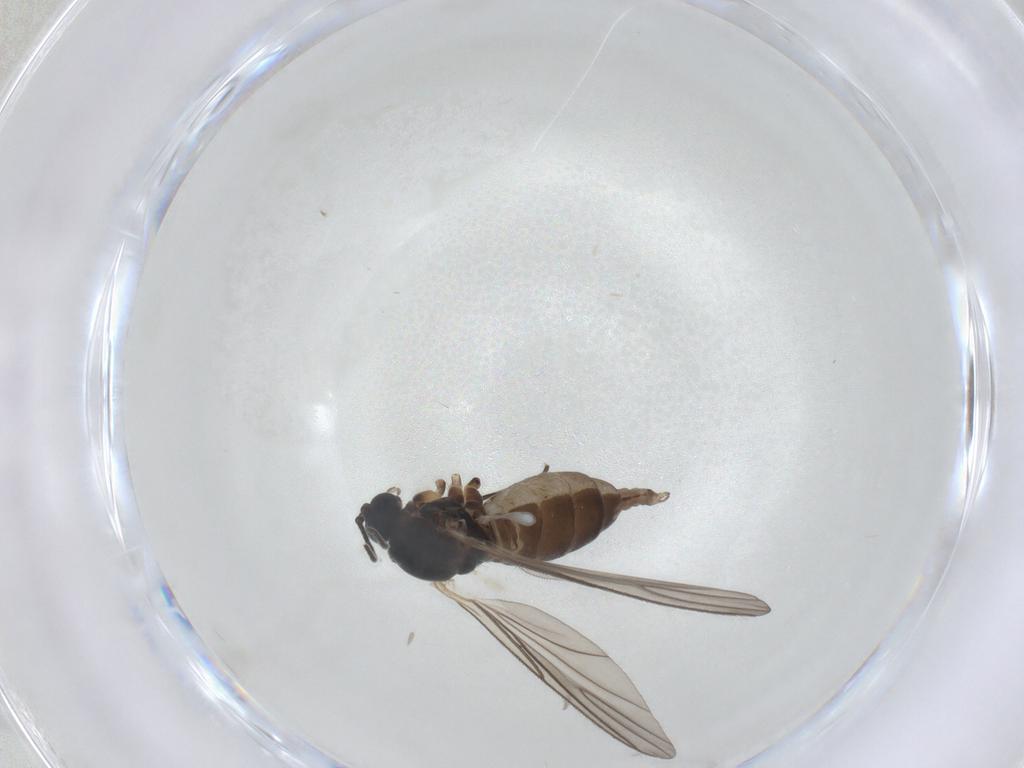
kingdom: Animalia
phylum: Arthropoda
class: Insecta
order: Diptera
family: Sciaridae
